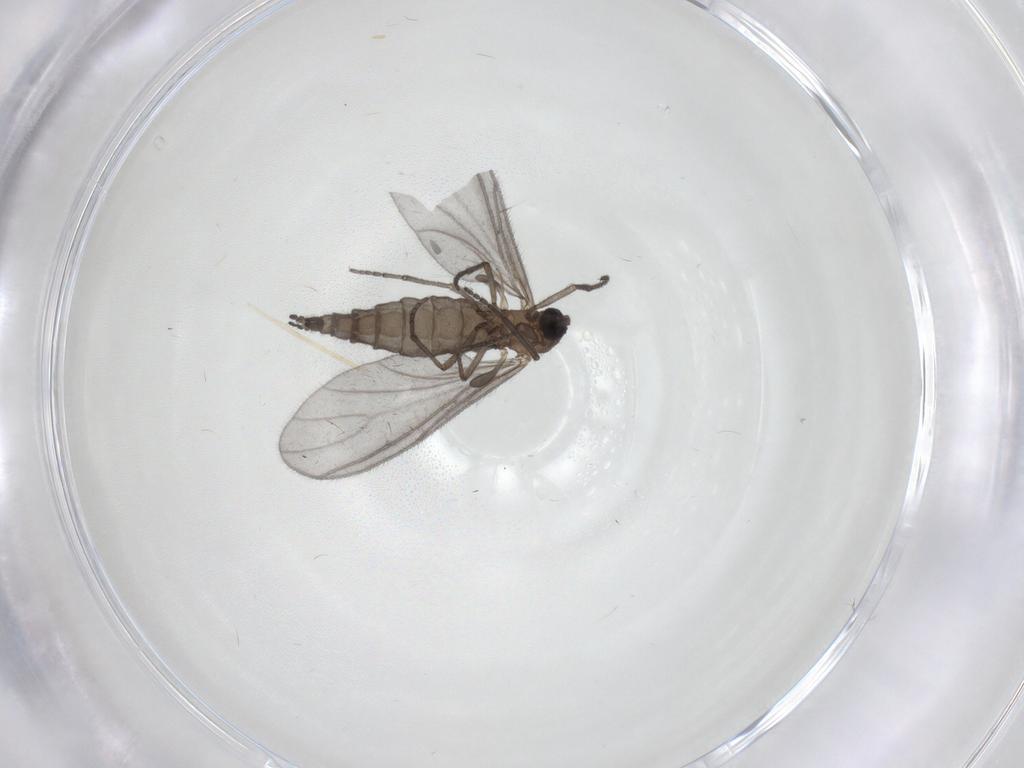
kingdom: Animalia
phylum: Arthropoda
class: Insecta
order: Diptera
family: Sciaridae
